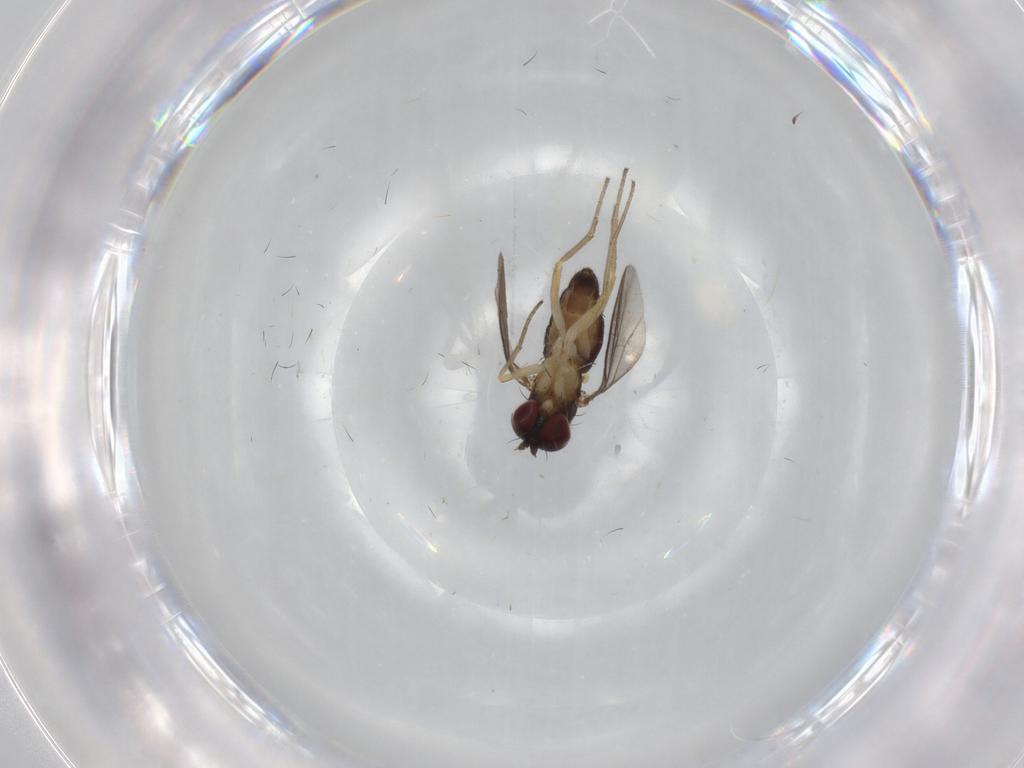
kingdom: Animalia
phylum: Arthropoda
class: Insecta
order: Diptera
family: Dolichopodidae
